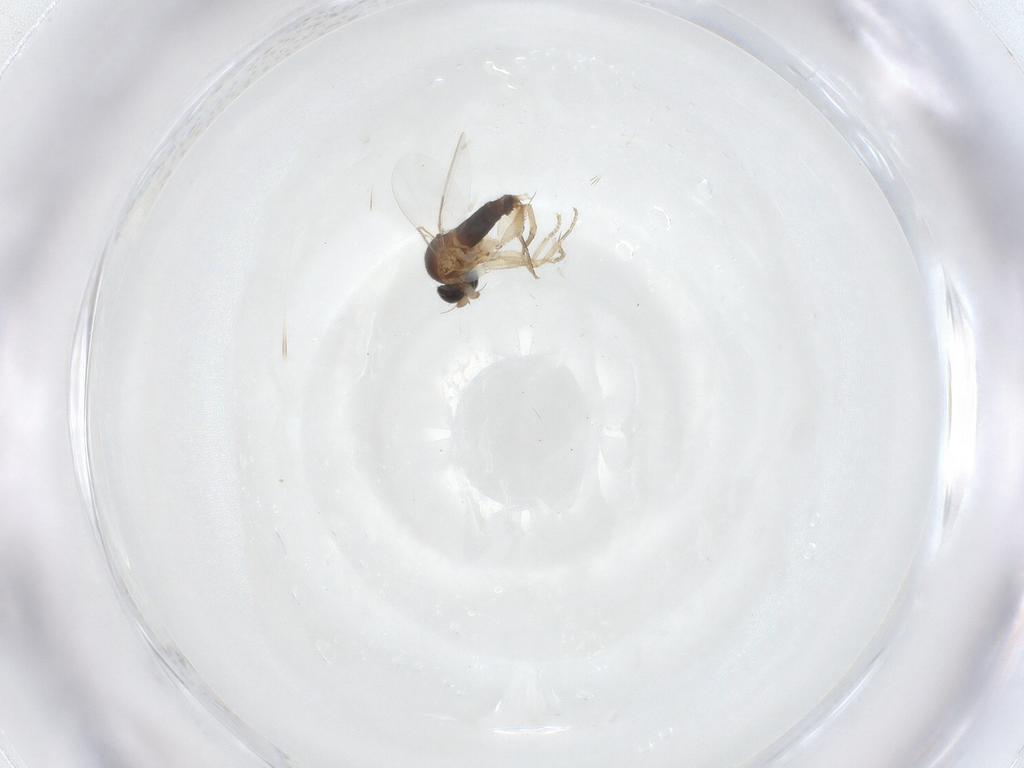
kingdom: Animalia
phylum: Arthropoda
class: Insecta
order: Diptera
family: Phoridae
